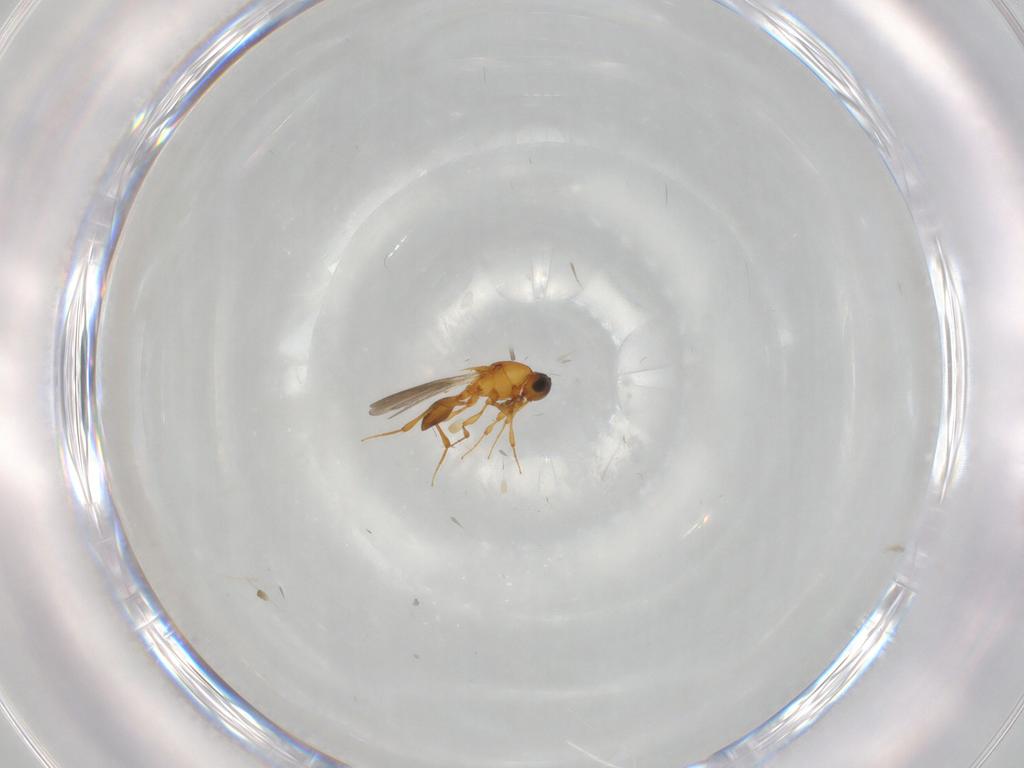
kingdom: Animalia
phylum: Arthropoda
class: Insecta
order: Hymenoptera
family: Platygastridae
